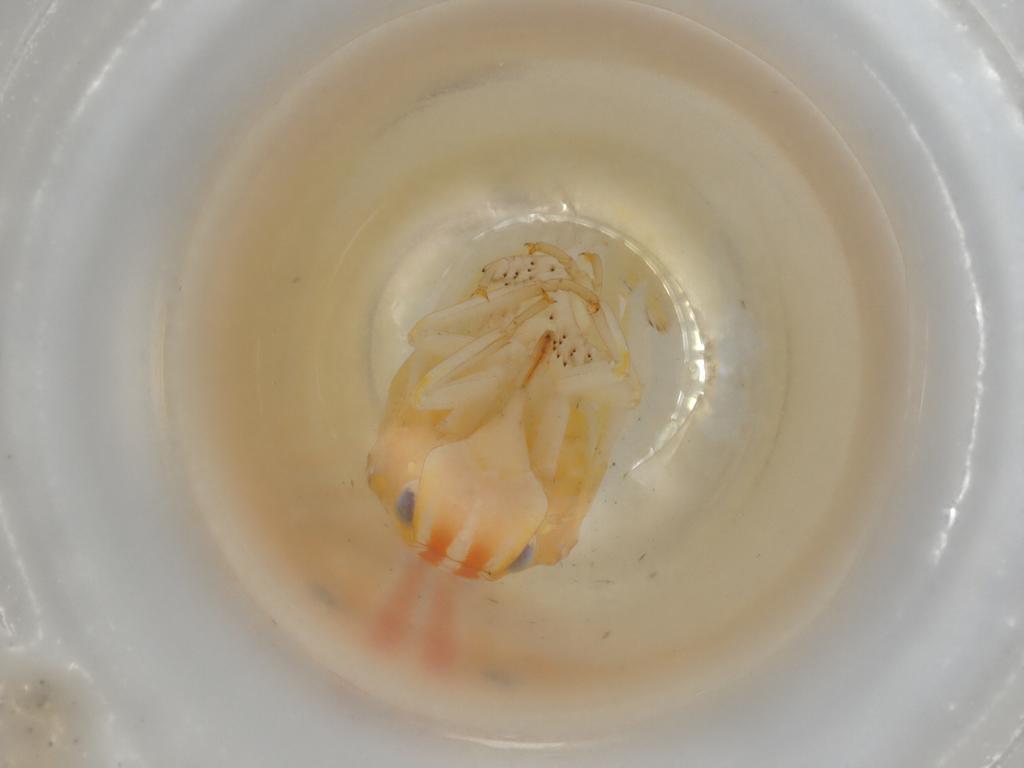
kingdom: Animalia
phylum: Arthropoda
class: Insecta
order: Hemiptera
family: Flatidae
